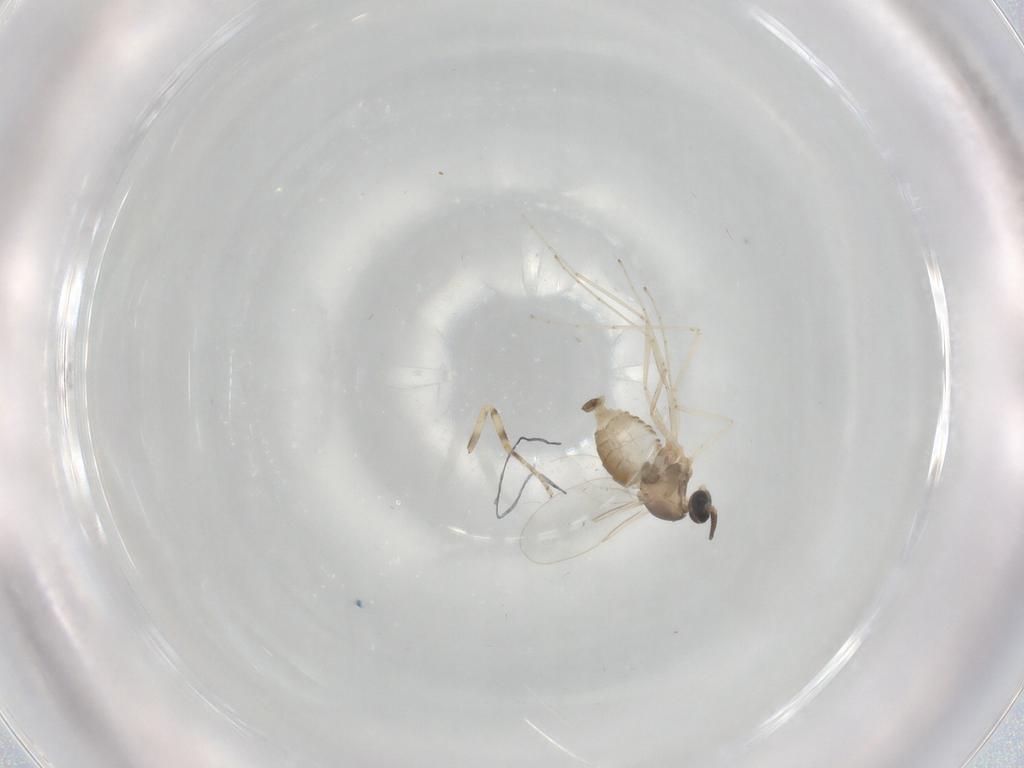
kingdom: Animalia
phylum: Arthropoda
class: Insecta
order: Diptera
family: Cecidomyiidae
